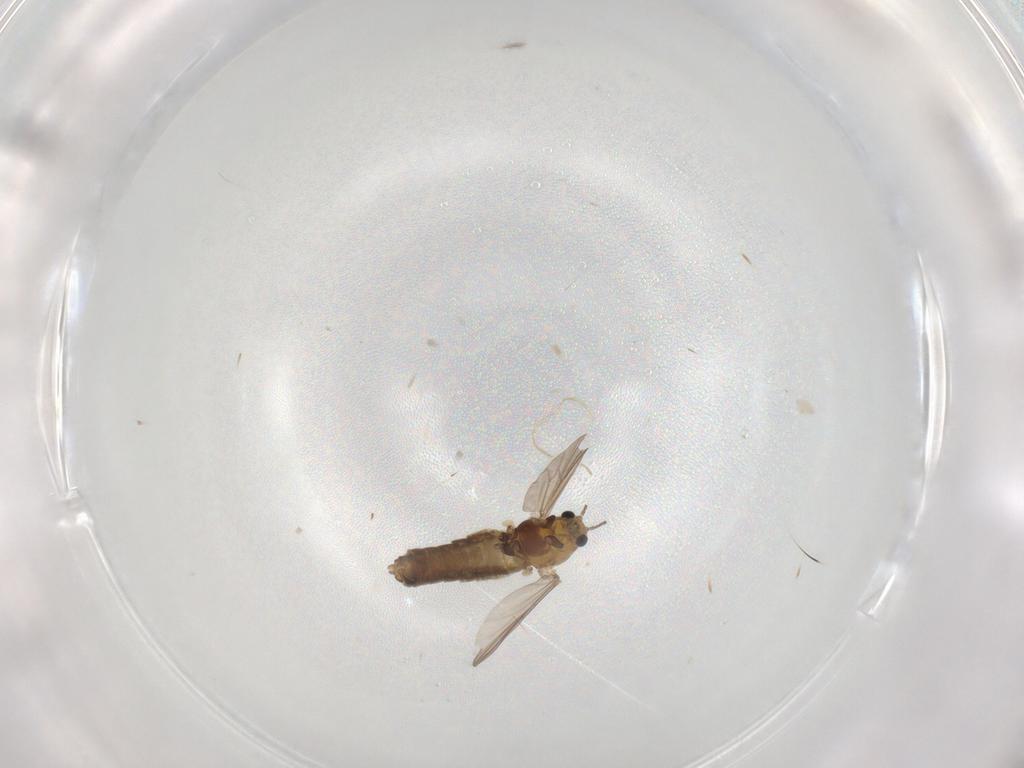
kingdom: Animalia
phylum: Arthropoda
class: Insecta
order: Diptera
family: Chironomidae
